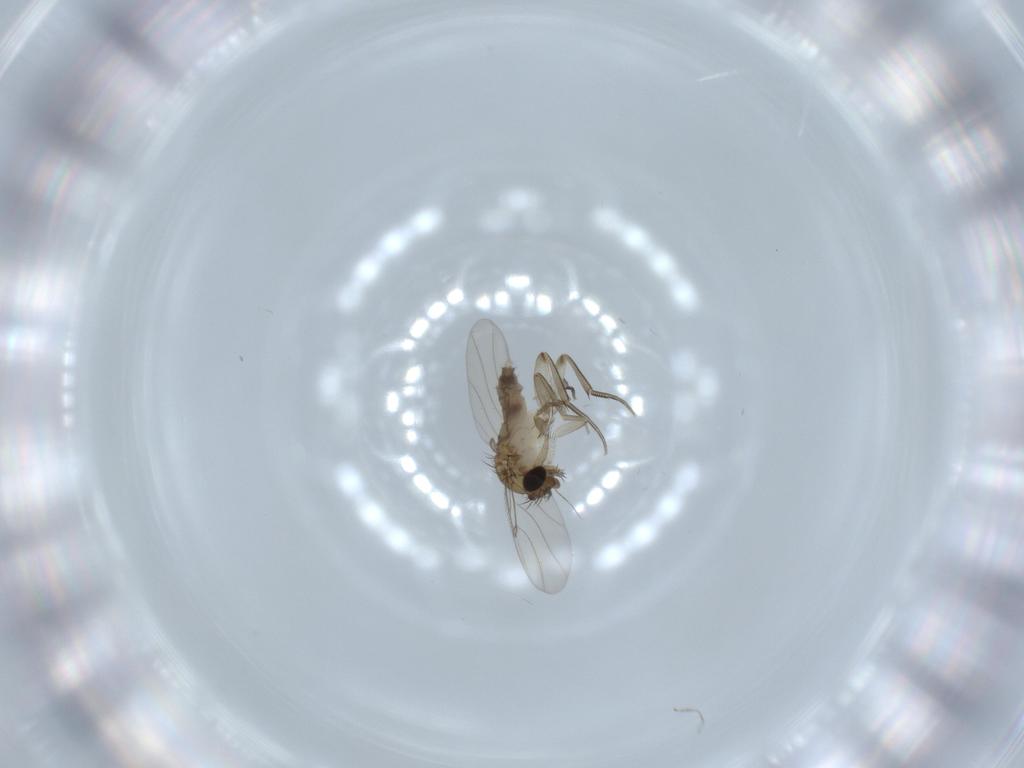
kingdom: Animalia
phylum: Arthropoda
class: Insecta
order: Diptera
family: Phoridae
